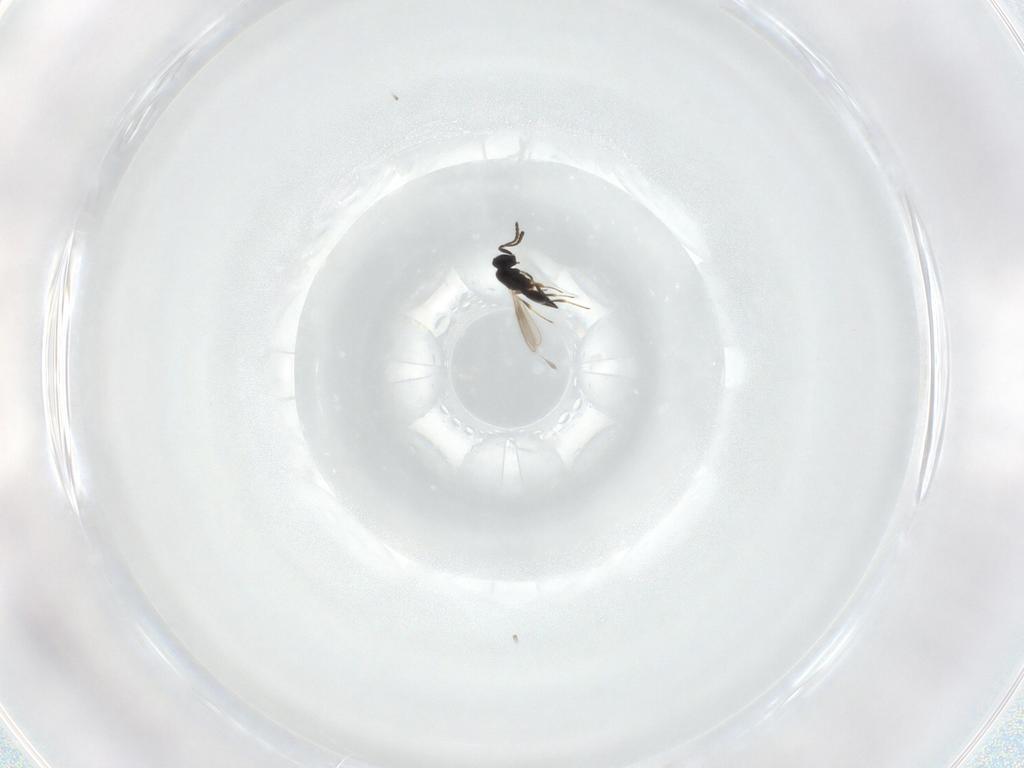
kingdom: Animalia
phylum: Arthropoda
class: Insecta
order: Hymenoptera
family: Scelionidae
